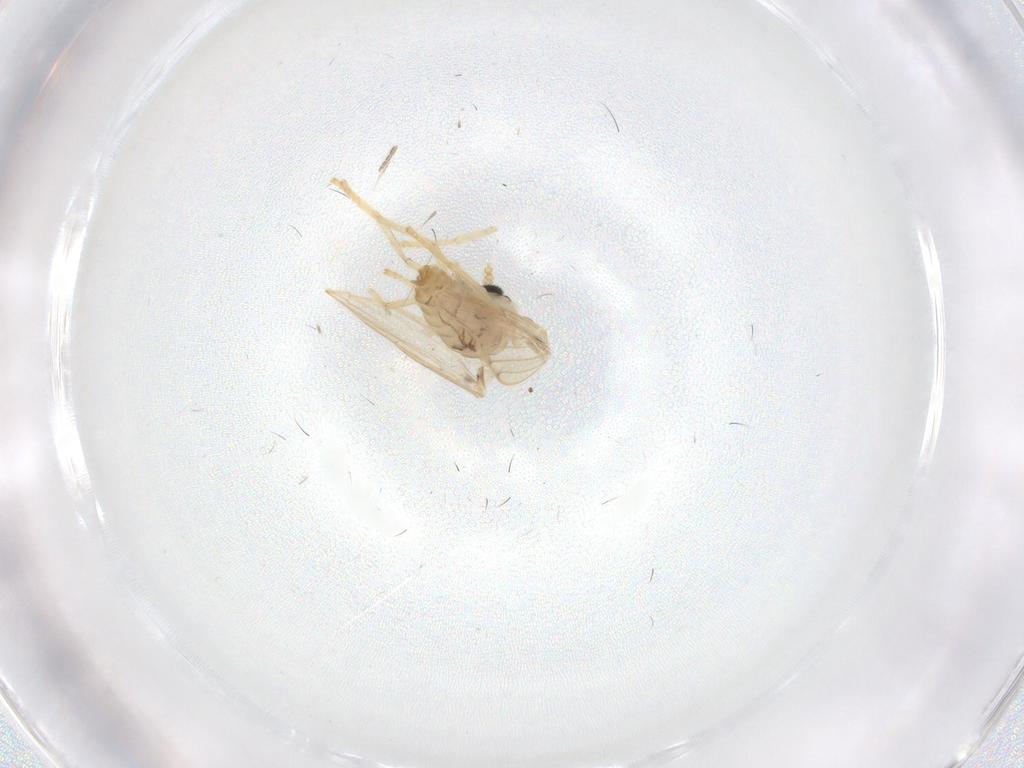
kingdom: Animalia
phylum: Arthropoda
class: Insecta
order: Diptera
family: Psychodidae
